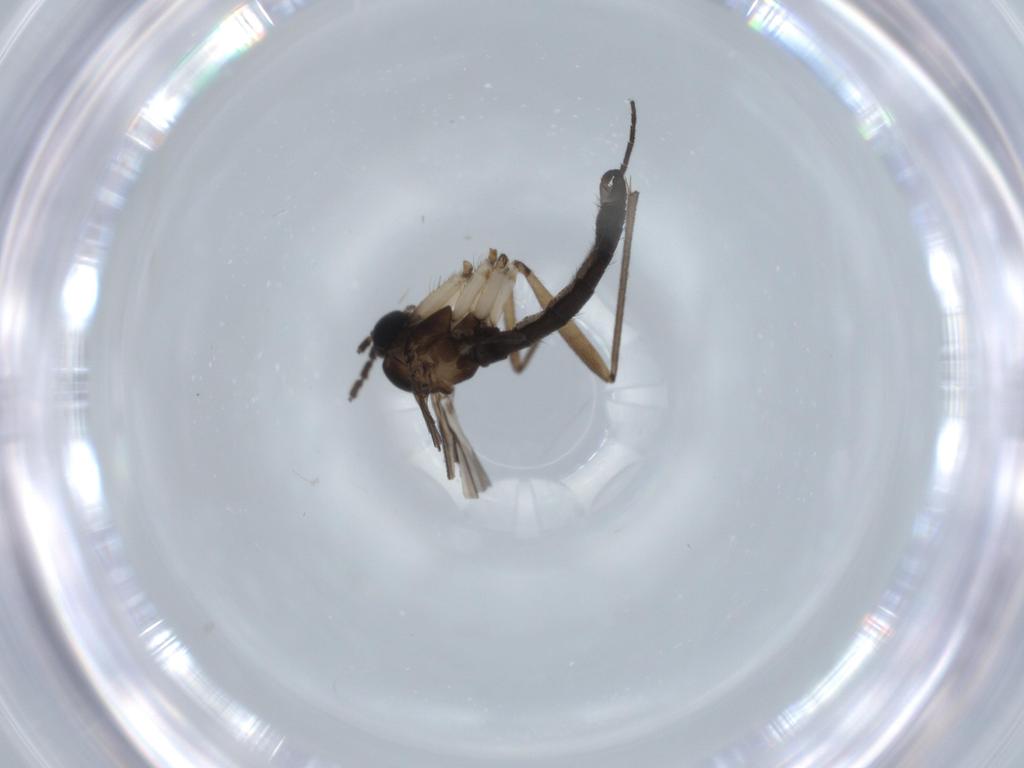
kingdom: Animalia
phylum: Arthropoda
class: Insecta
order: Diptera
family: Sciaridae
